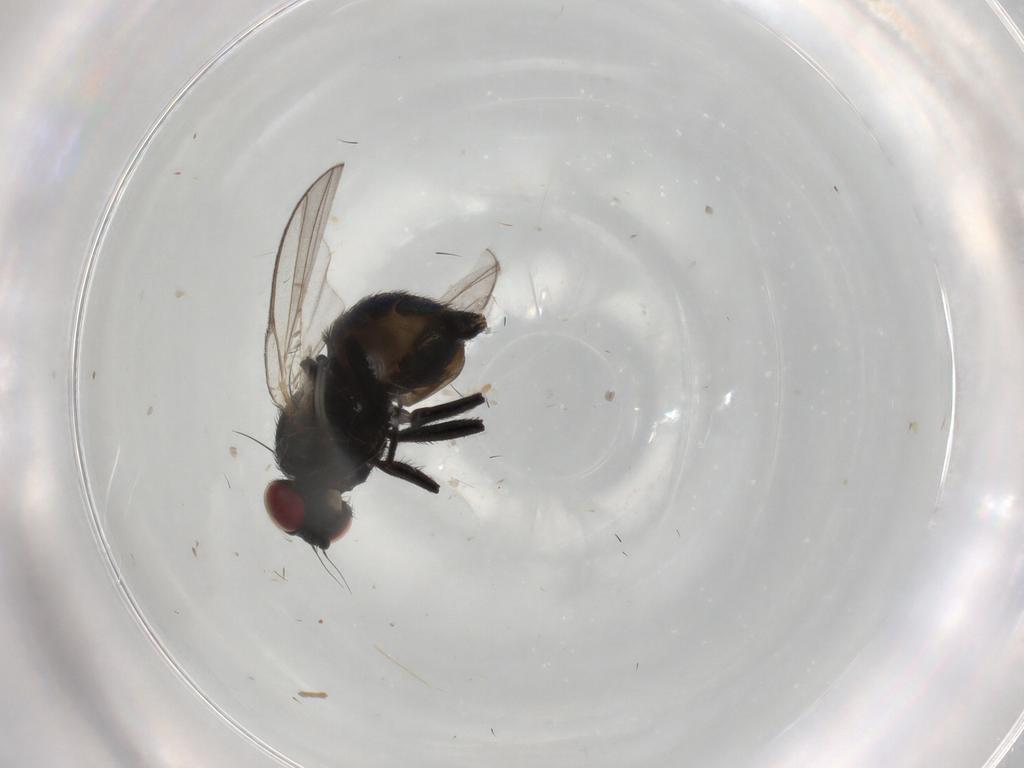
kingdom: Animalia
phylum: Arthropoda
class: Insecta
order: Diptera
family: Agromyzidae
